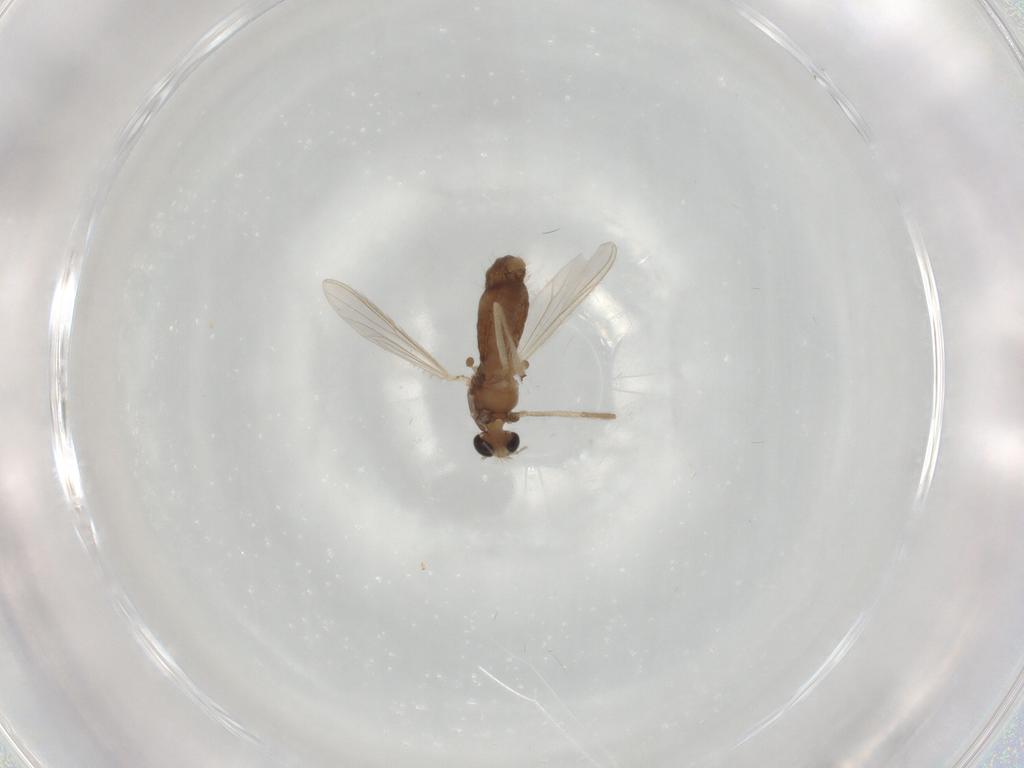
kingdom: Animalia
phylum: Arthropoda
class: Insecta
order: Diptera
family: Chironomidae
